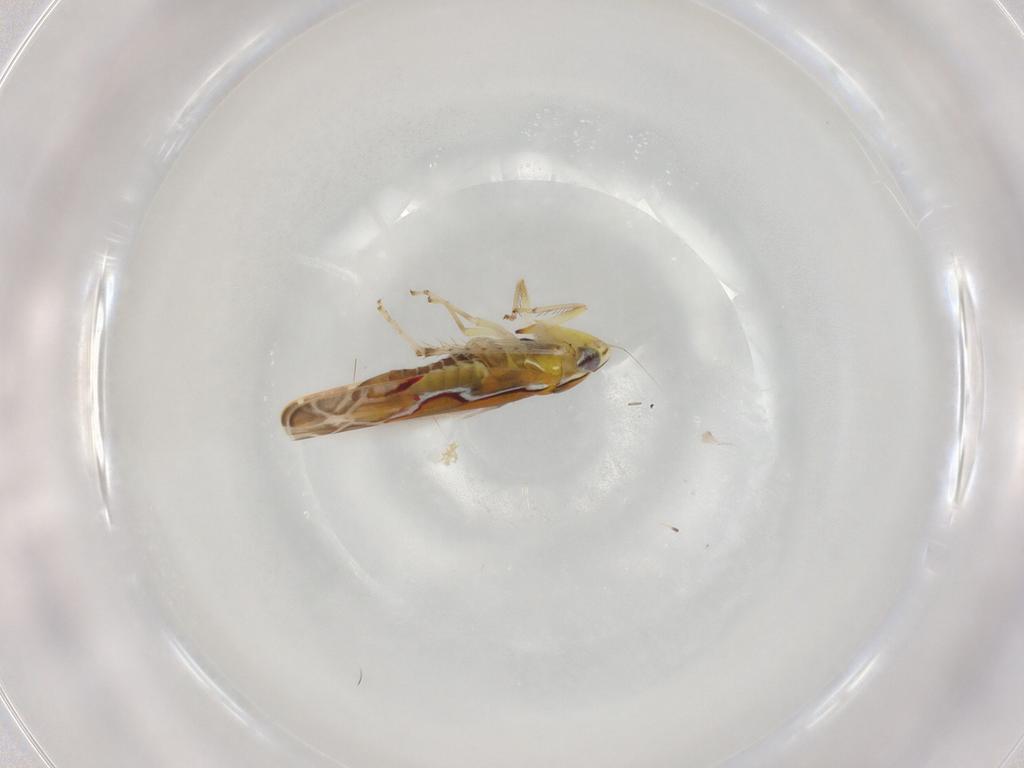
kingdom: Animalia
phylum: Arthropoda
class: Insecta
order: Hemiptera
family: Cicadellidae
